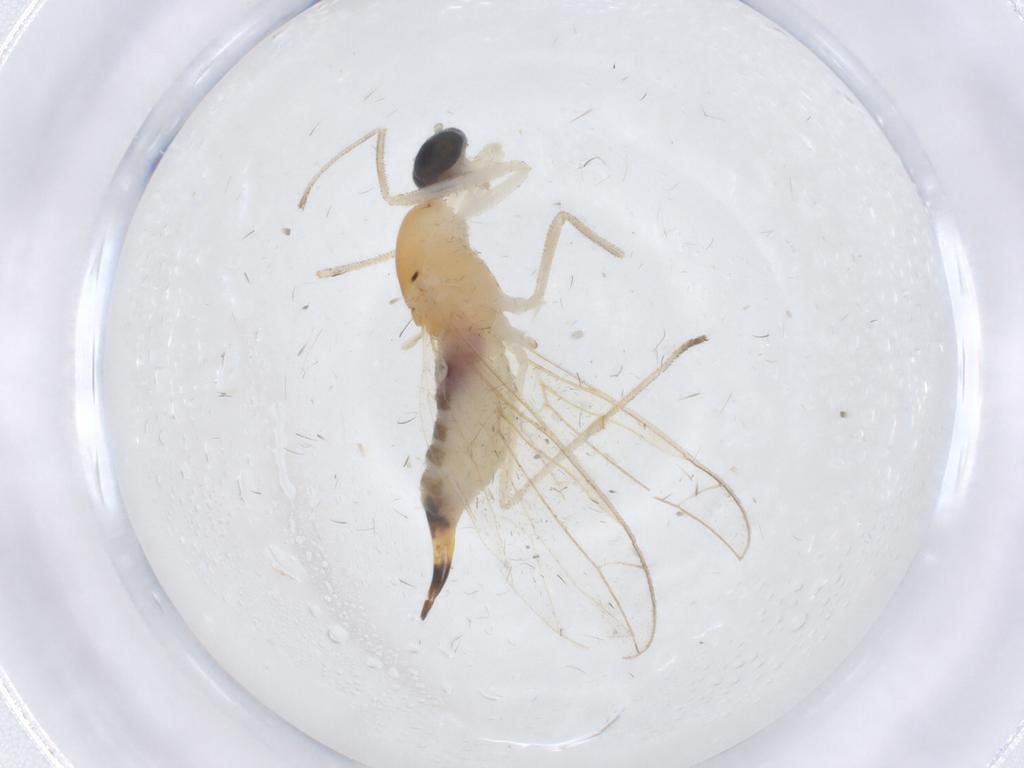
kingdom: Animalia
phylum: Arthropoda
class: Insecta
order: Diptera
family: Empididae
